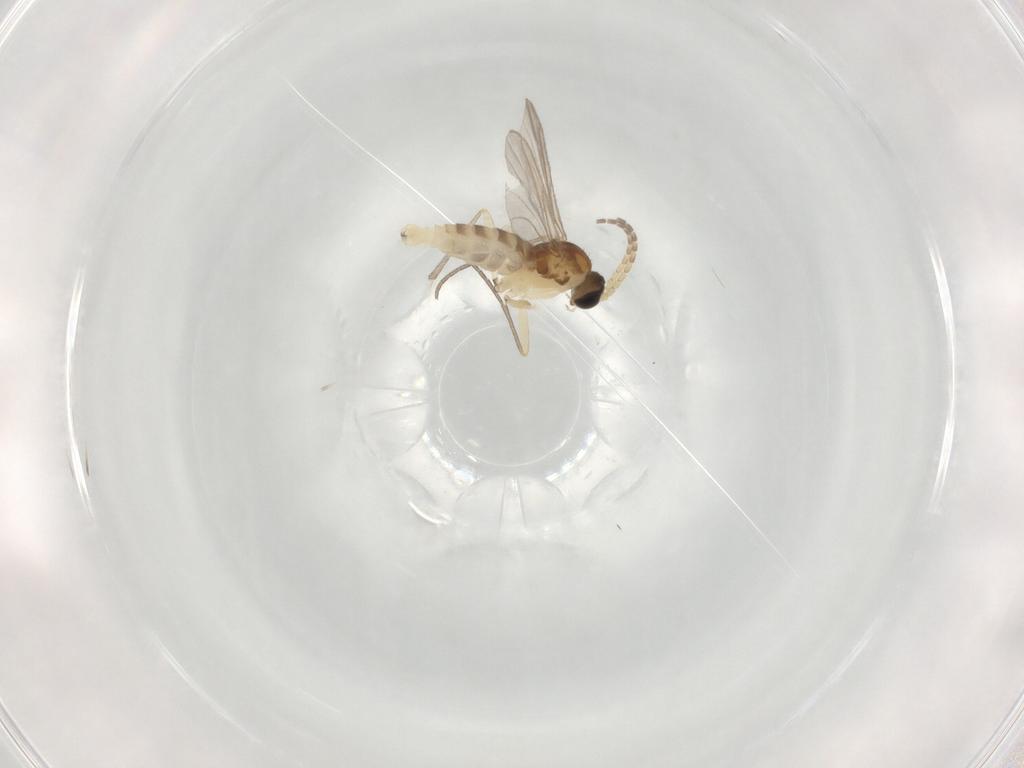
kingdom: Animalia
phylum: Arthropoda
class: Insecta
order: Diptera
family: Sciaridae
